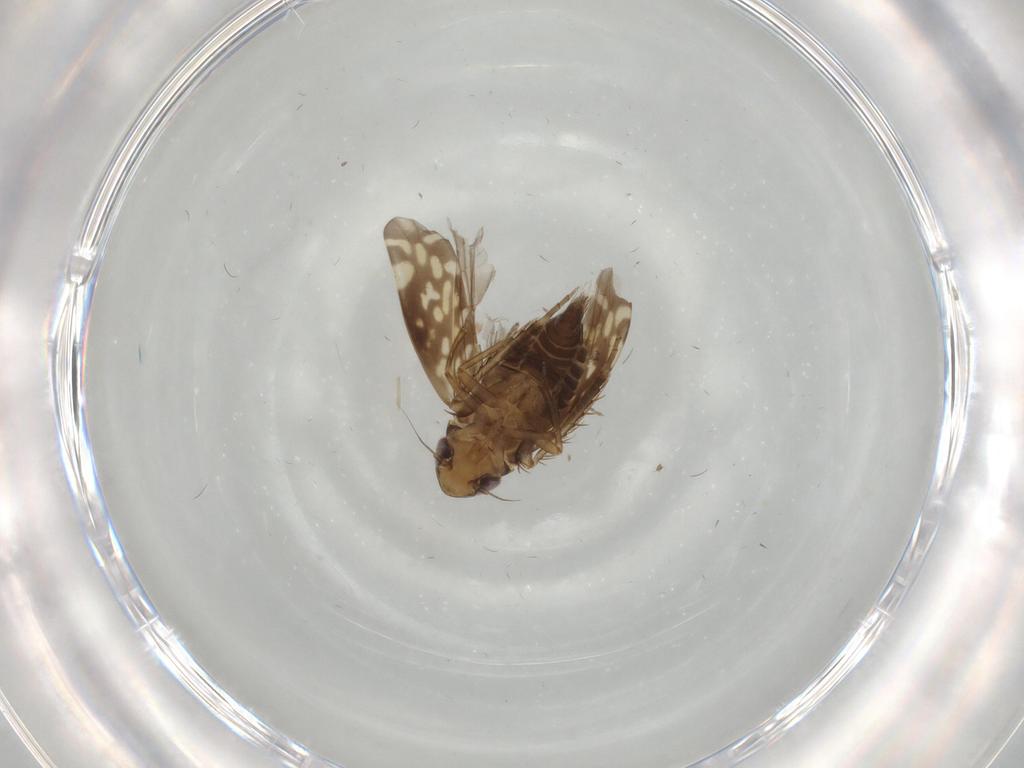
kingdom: Animalia
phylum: Arthropoda
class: Insecta
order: Hemiptera
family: Cicadellidae
